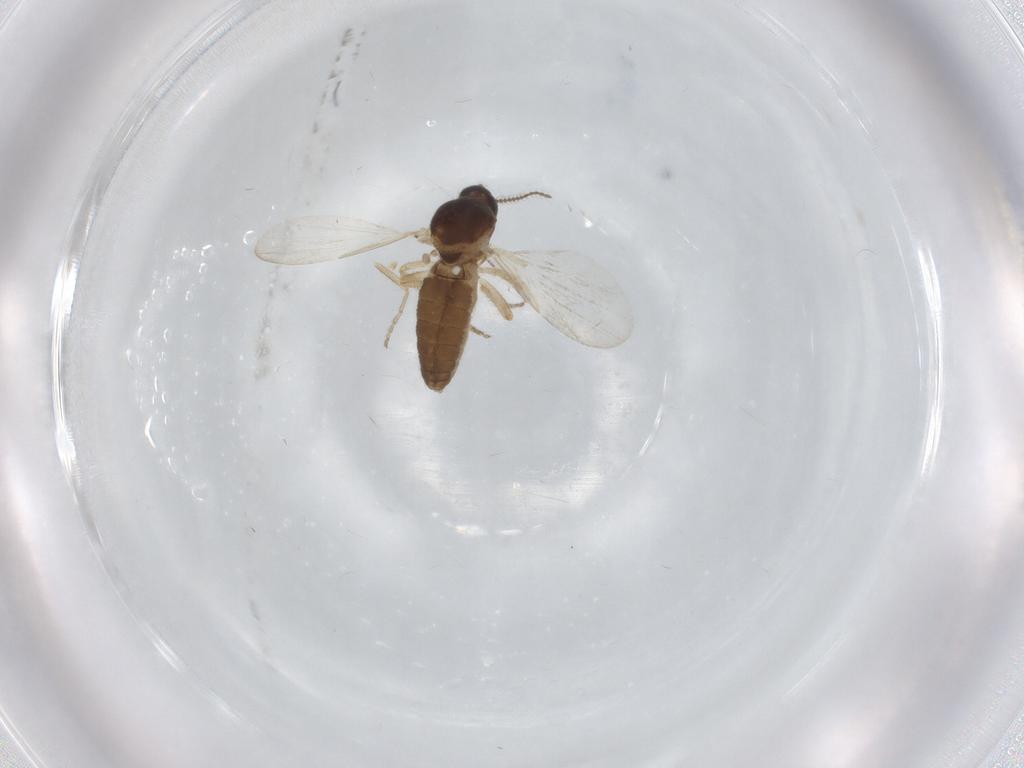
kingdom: Animalia
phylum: Arthropoda
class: Insecta
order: Diptera
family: Ceratopogonidae
